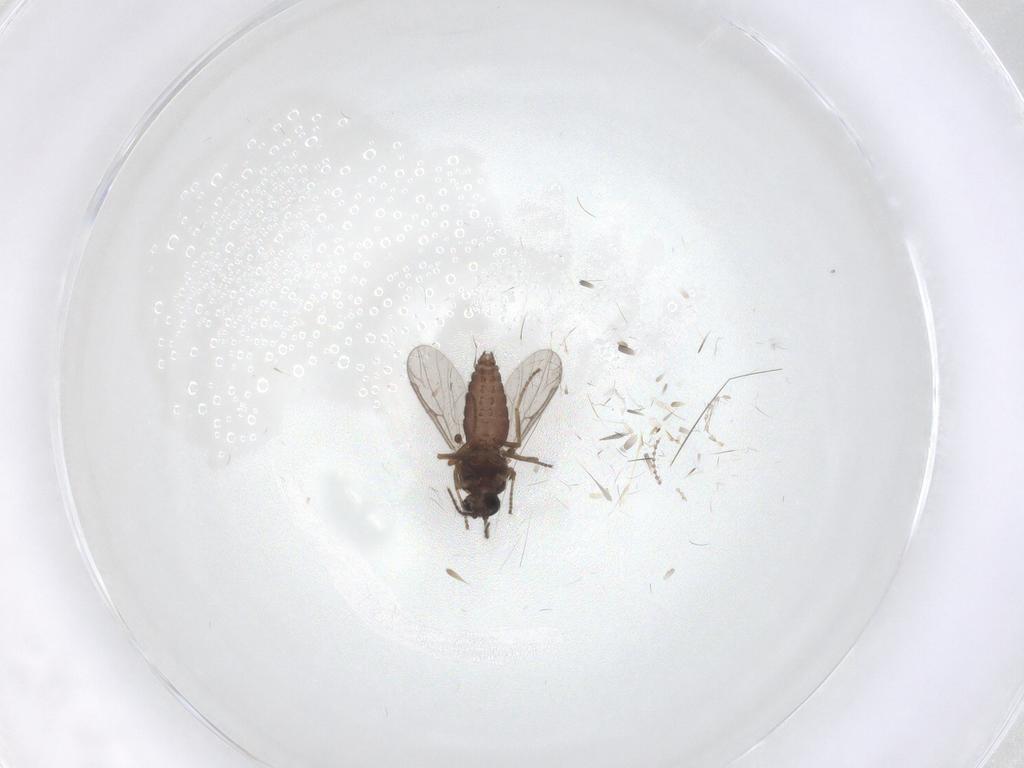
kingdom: Animalia
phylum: Arthropoda
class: Insecta
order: Diptera
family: Ceratopogonidae
